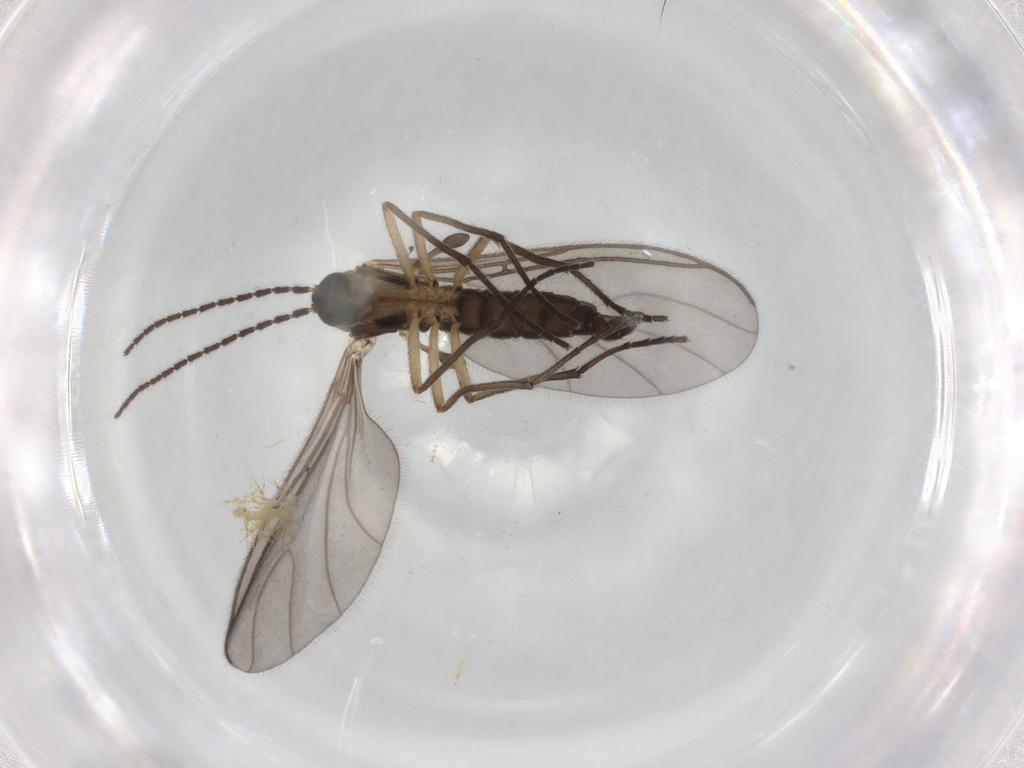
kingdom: Animalia
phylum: Arthropoda
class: Insecta
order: Diptera
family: Sciaridae
